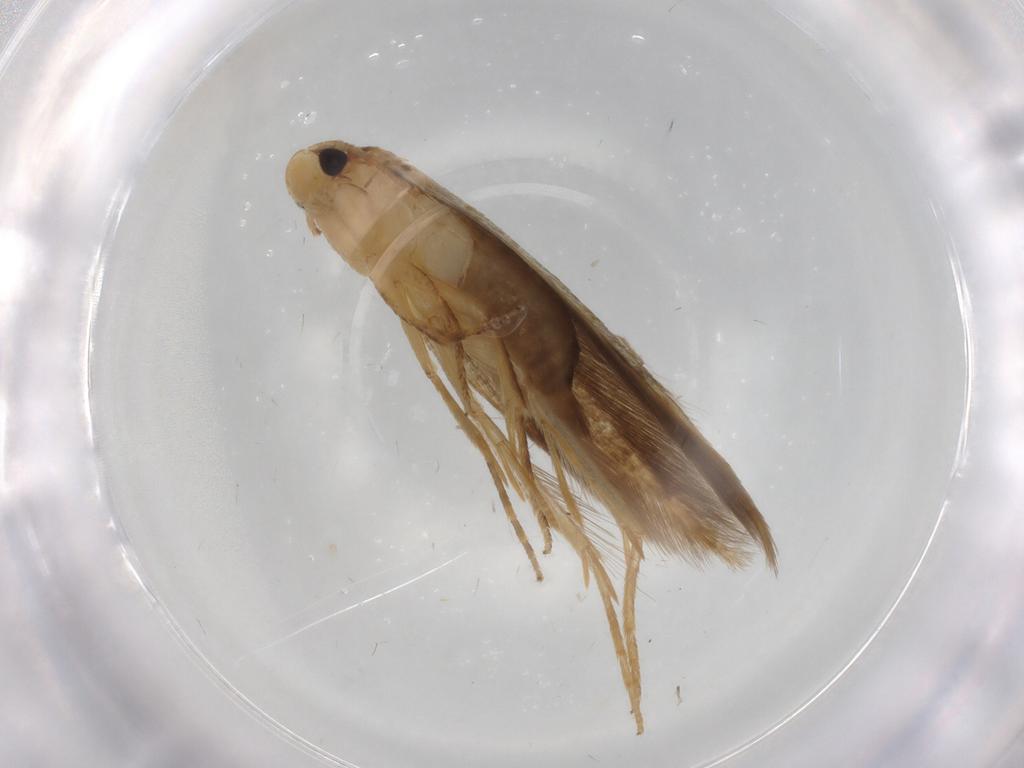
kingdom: Animalia
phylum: Arthropoda
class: Insecta
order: Lepidoptera
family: Tineidae
